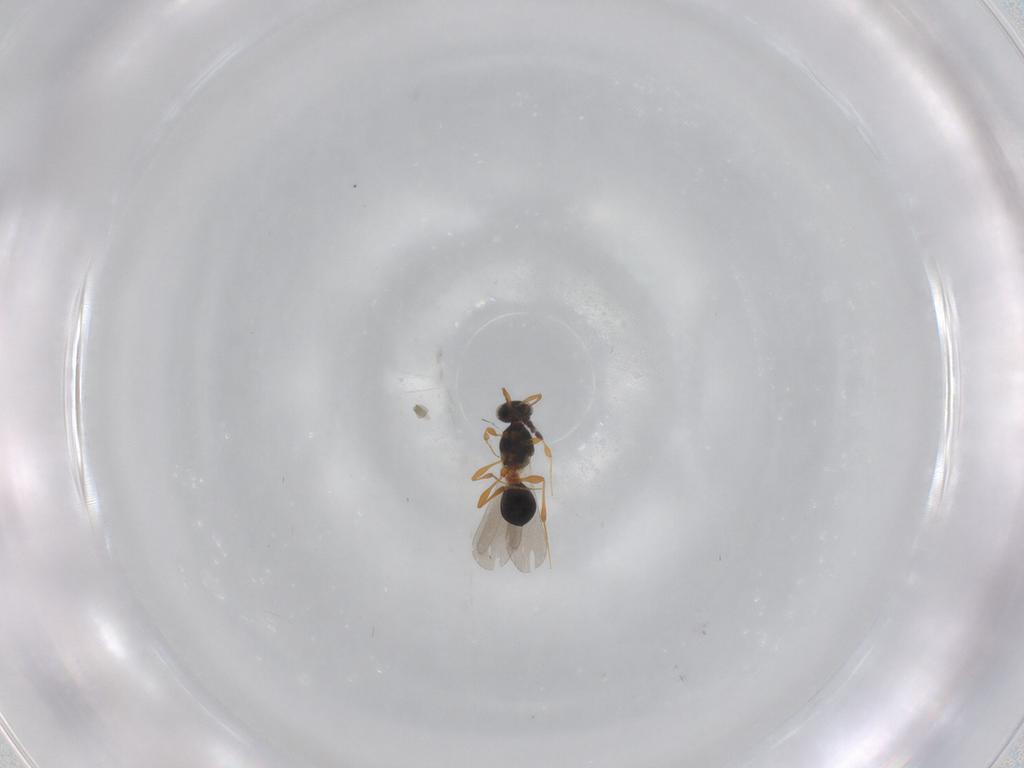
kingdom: Animalia
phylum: Arthropoda
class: Insecta
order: Hymenoptera
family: Platygastridae
